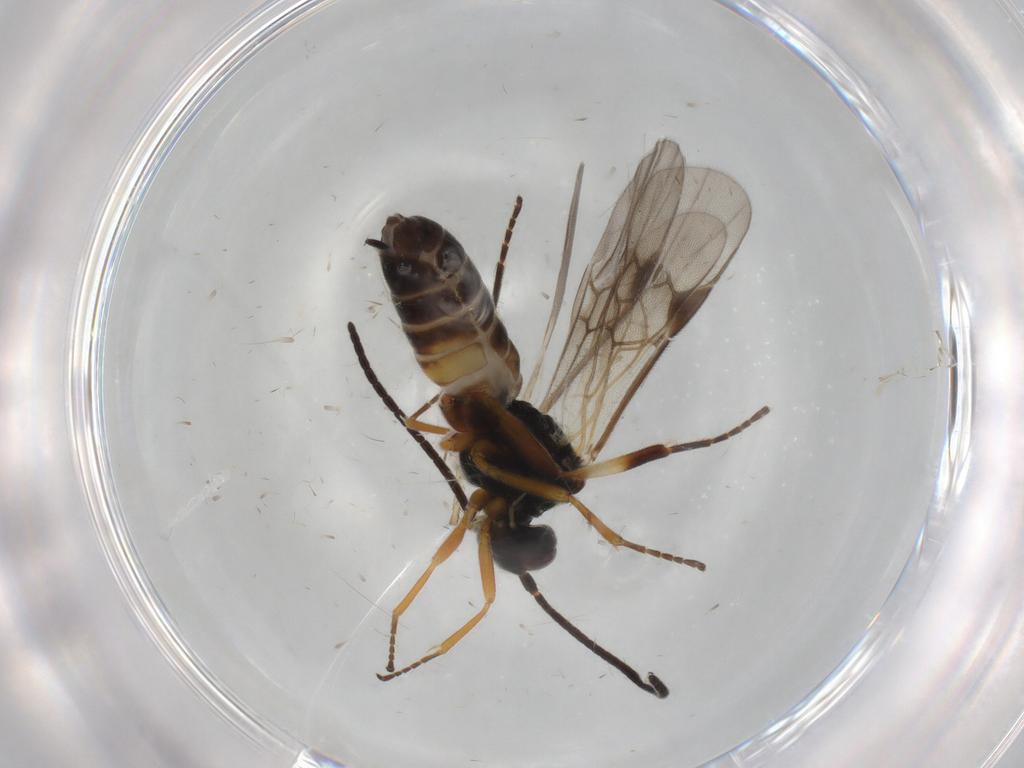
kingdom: Animalia
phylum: Arthropoda
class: Insecta
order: Hymenoptera
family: Braconidae
